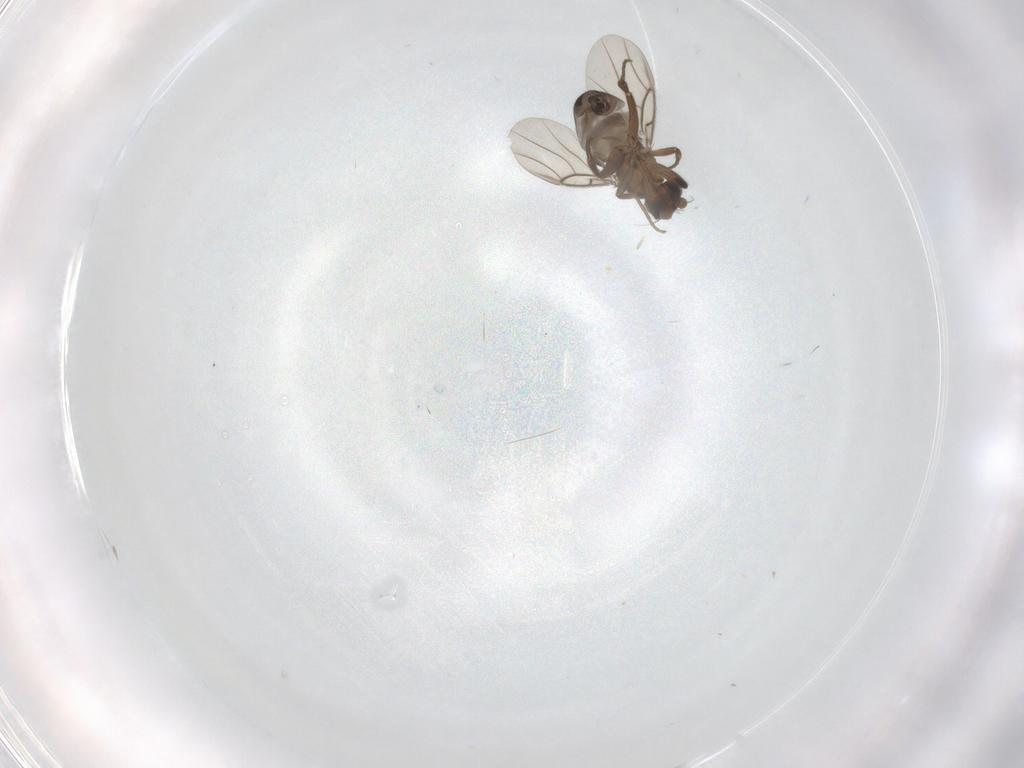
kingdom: Animalia
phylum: Arthropoda
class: Insecta
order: Diptera
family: Phoridae
